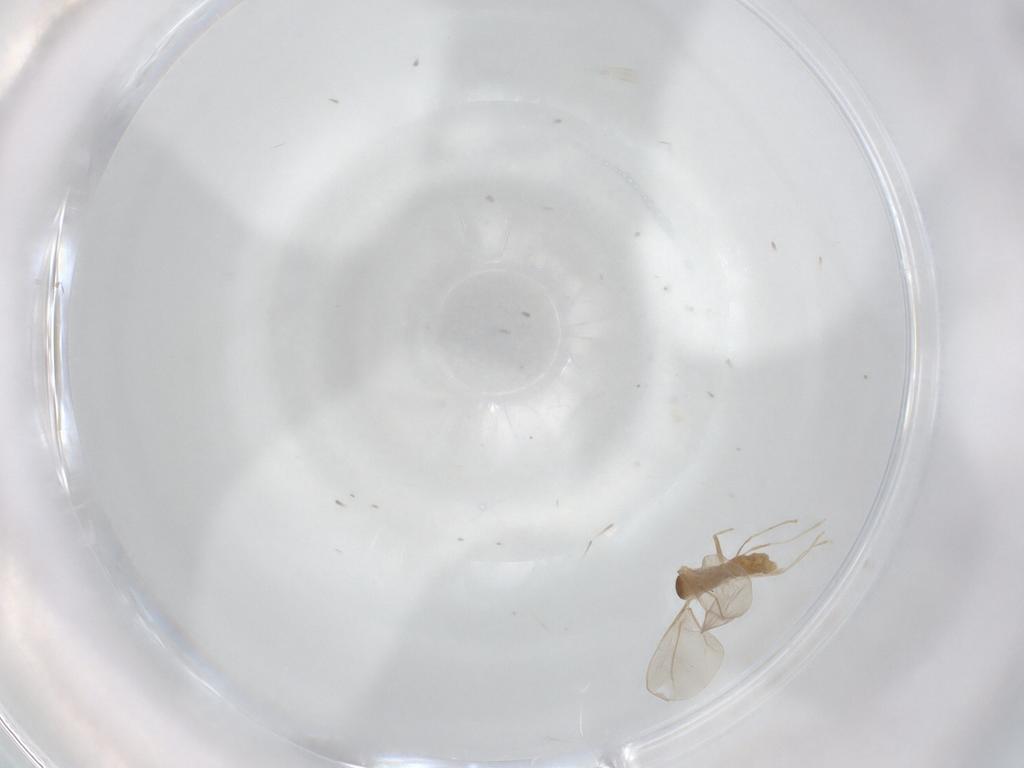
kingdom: Animalia
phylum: Arthropoda
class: Insecta
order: Diptera
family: Cecidomyiidae
